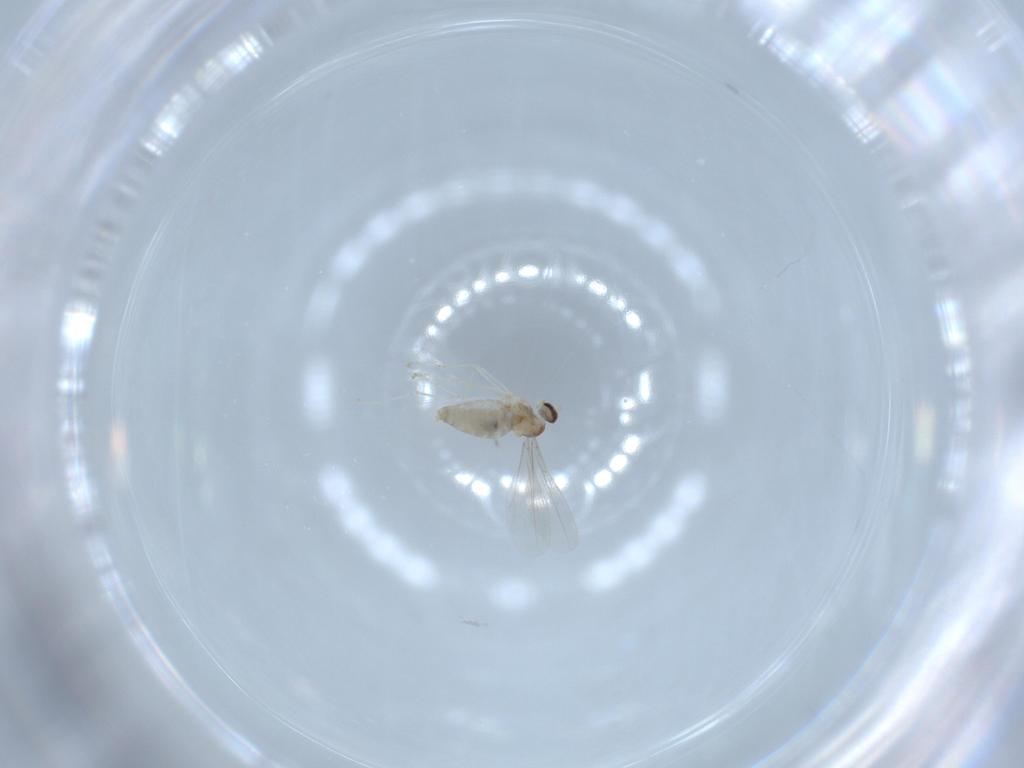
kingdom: Animalia
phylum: Arthropoda
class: Insecta
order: Diptera
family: Cecidomyiidae
